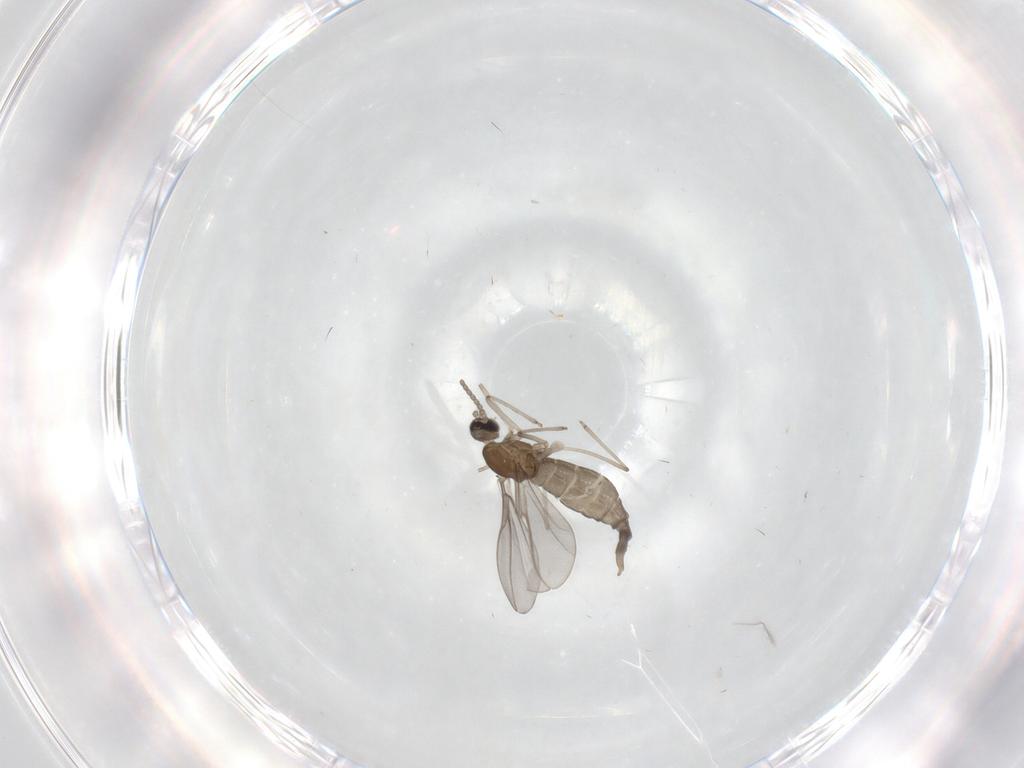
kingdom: Animalia
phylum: Arthropoda
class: Insecta
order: Diptera
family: Cecidomyiidae
